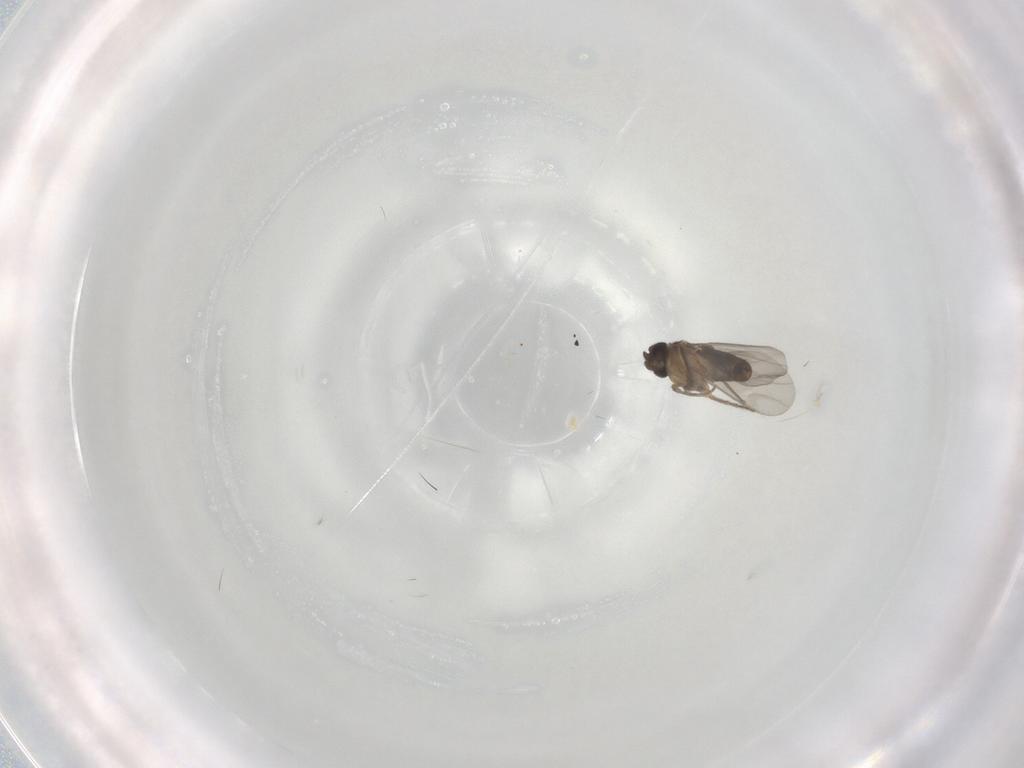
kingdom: Animalia
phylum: Arthropoda
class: Insecta
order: Diptera
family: Phoridae
